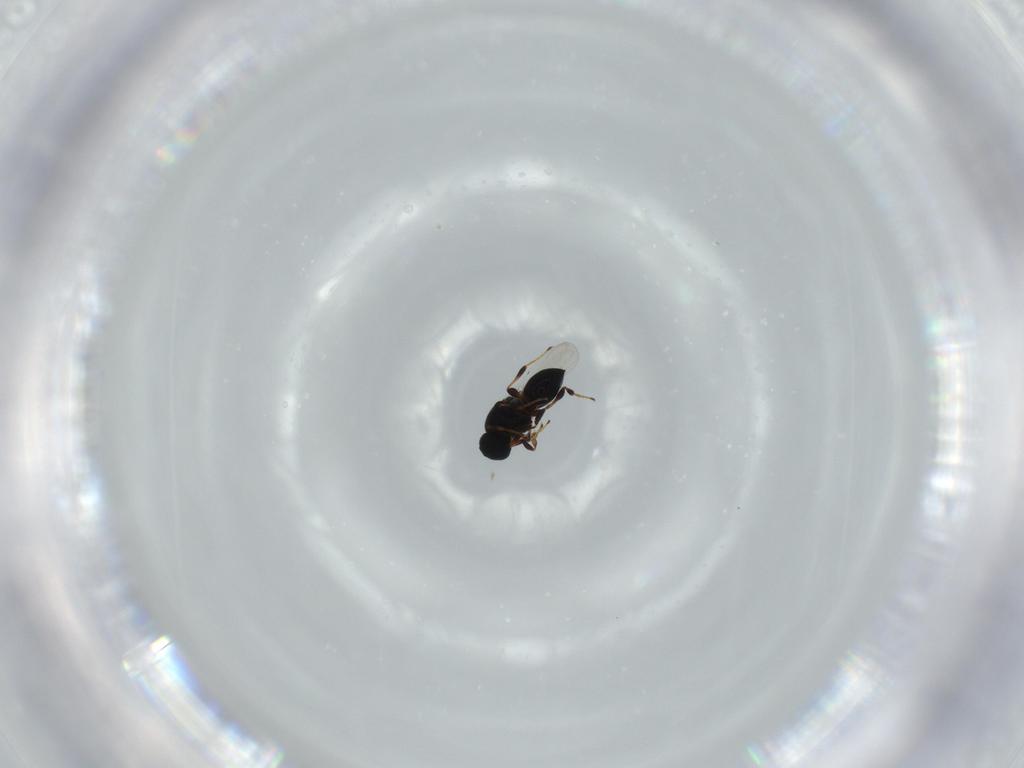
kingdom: Animalia
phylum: Arthropoda
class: Insecta
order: Hymenoptera
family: Platygastridae
